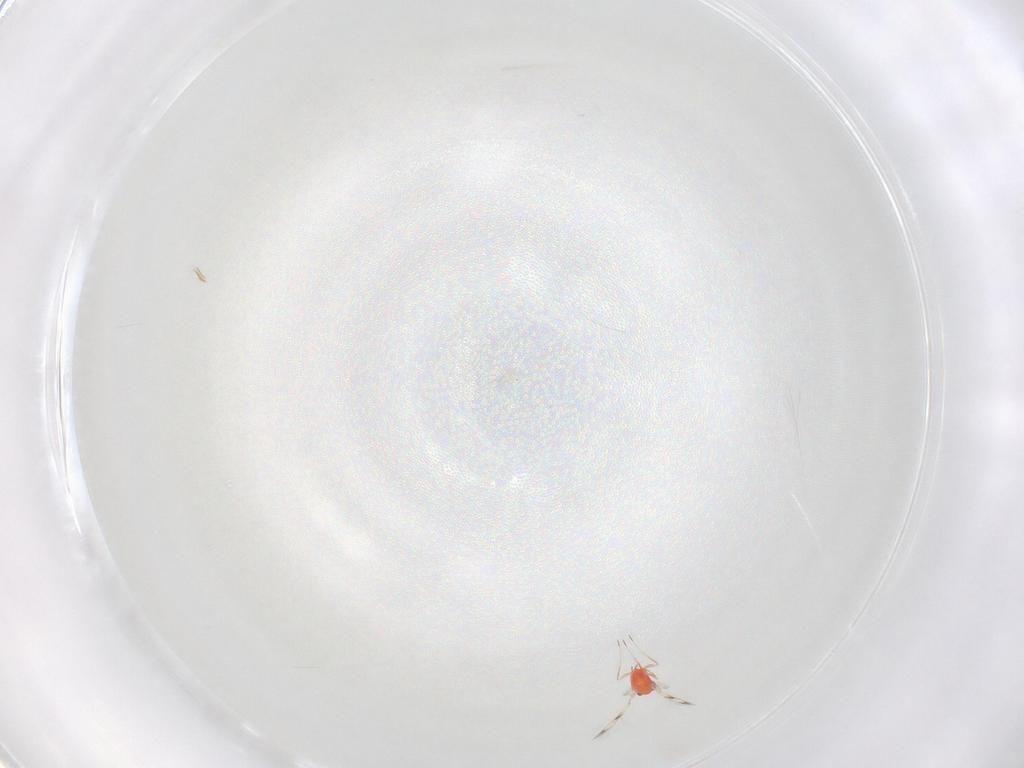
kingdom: Animalia
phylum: Arthropoda
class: Insecta
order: Hymenoptera
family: Trichogrammatidae
